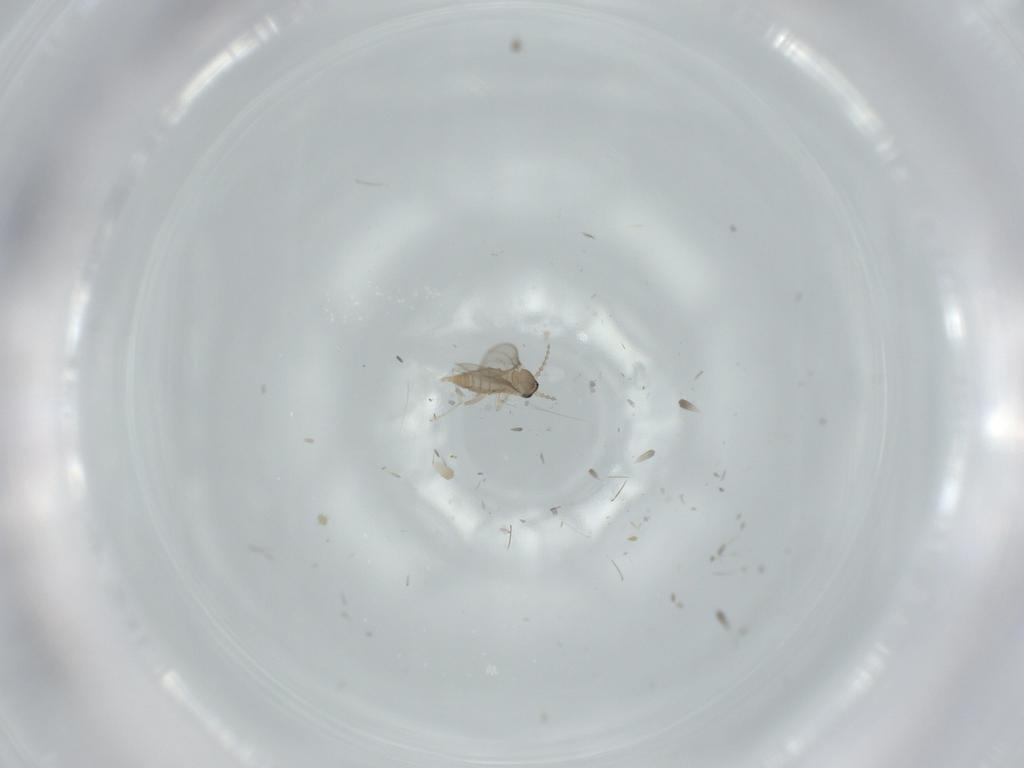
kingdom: Animalia
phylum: Arthropoda
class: Insecta
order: Diptera
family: Cecidomyiidae
